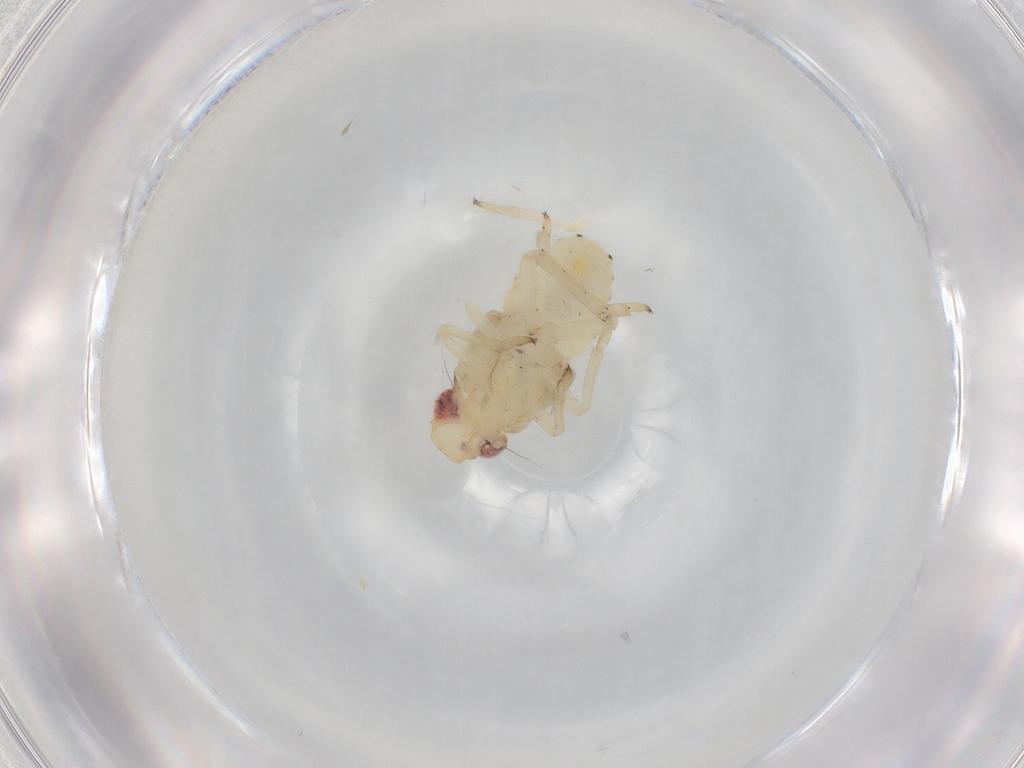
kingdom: Animalia
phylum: Arthropoda
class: Insecta
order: Hemiptera
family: Caliscelidae
